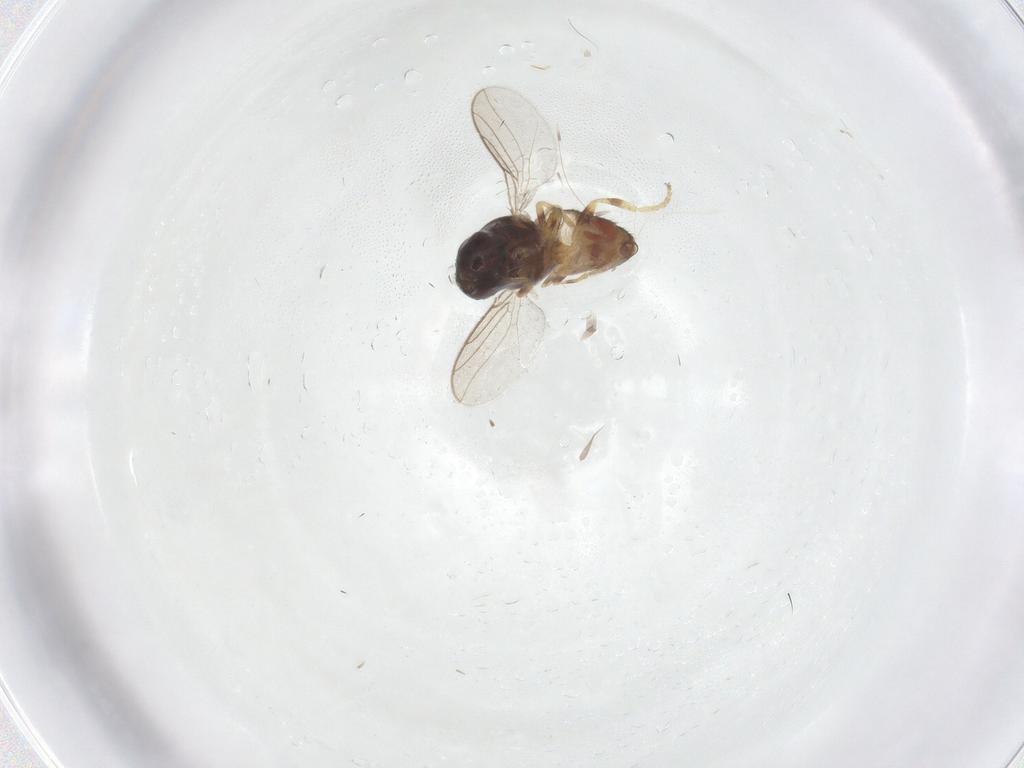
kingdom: Animalia
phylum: Arthropoda
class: Insecta
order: Diptera
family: Chloropidae
